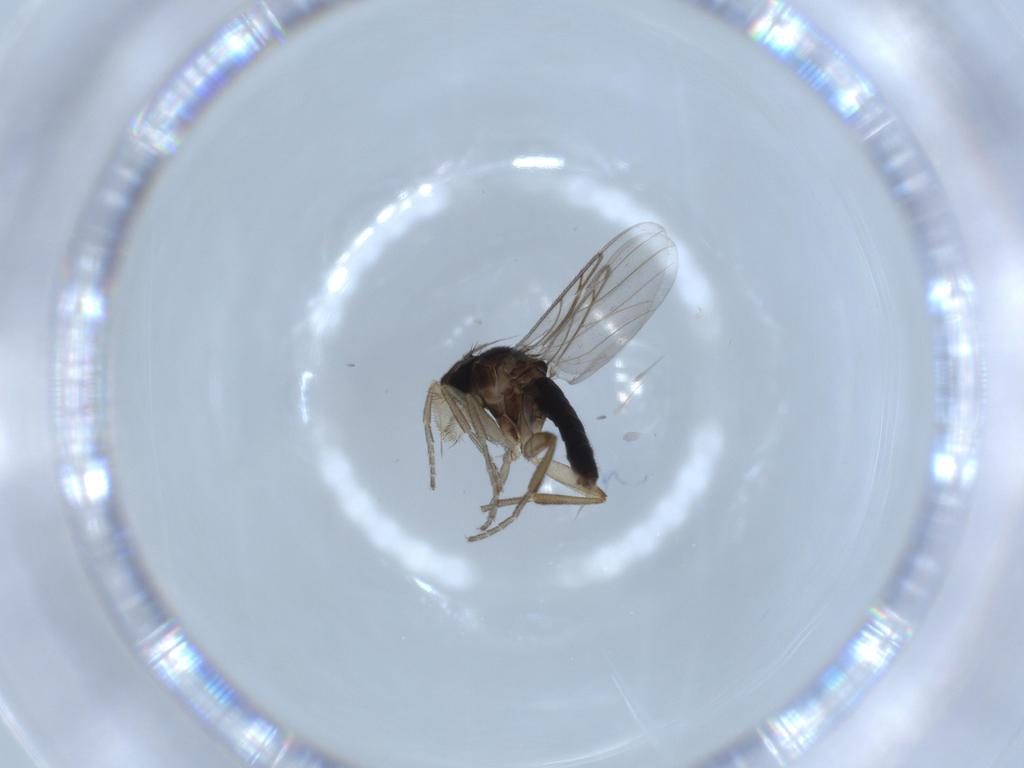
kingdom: Animalia
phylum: Arthropoda
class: Insecta
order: Diptera
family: Phoridae
